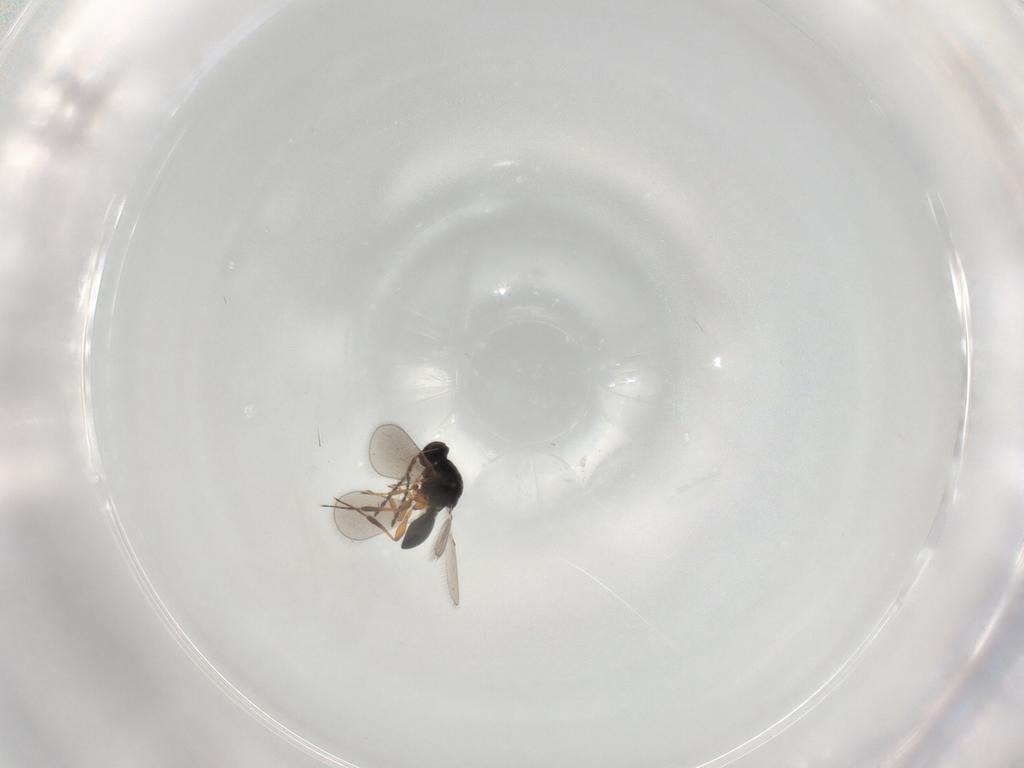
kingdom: Animalia
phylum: Arthropoda
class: Insecta
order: Hymenoptera
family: Platygastridae
